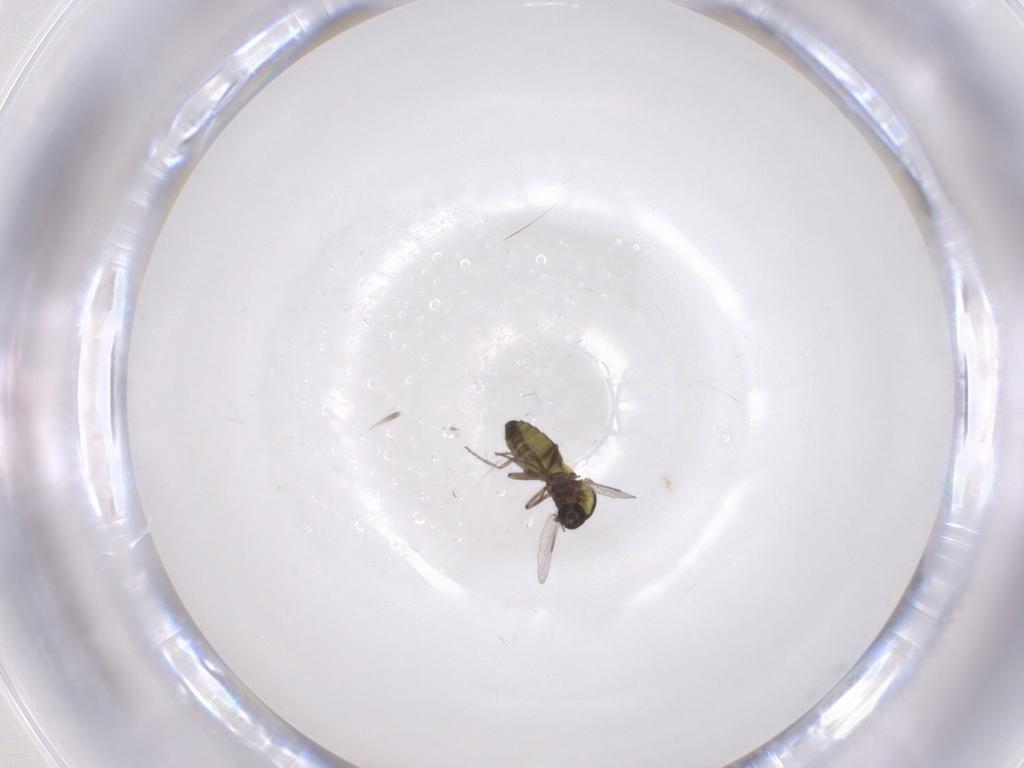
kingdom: Animalia
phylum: Arthropoda
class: Insecta
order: Diptera
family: Ceratopogonidae
